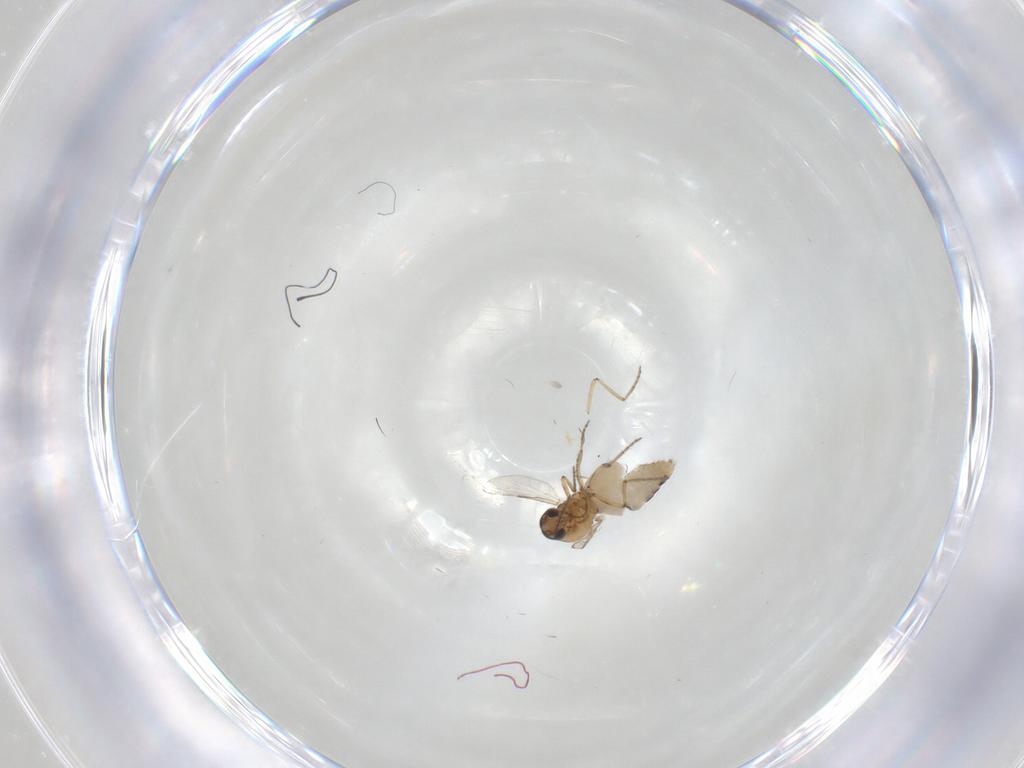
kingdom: Animalia
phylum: Arthropoda
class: Insecta
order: Diptera
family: Ceratopogonidae
